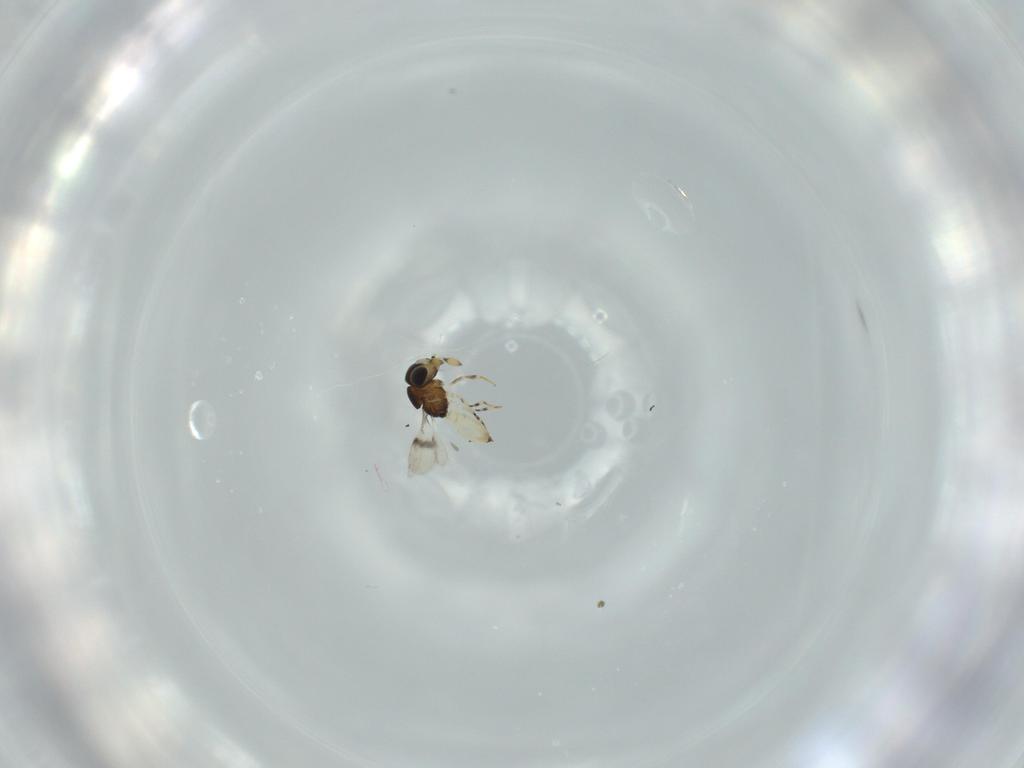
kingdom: Animalia
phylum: Arthropoda
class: Insecta
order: Hymenoptera
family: Scelionidae
